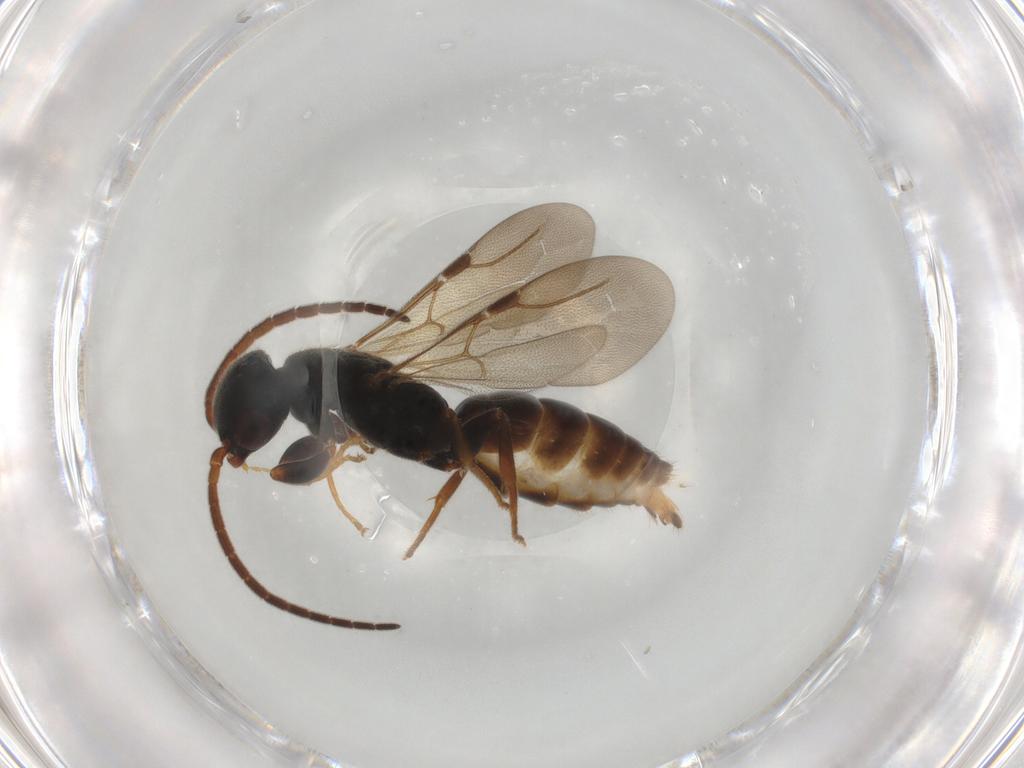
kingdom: Animalia
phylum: Arthropoda
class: Insecta
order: Hymenoptera
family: Bethylidae
